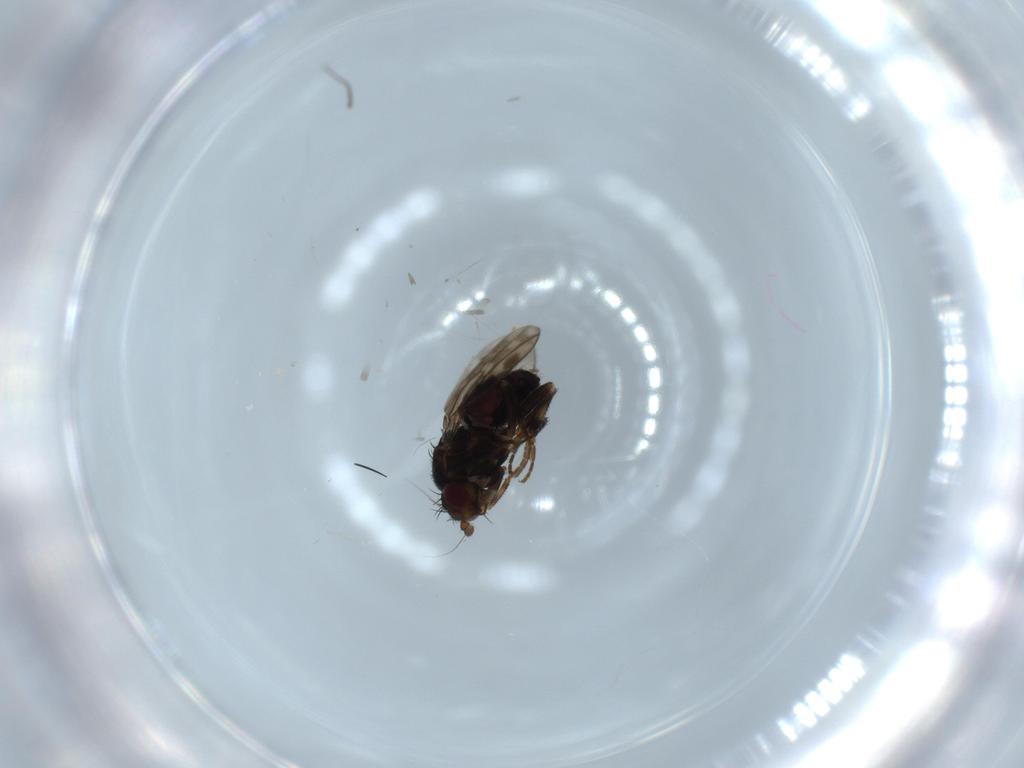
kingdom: Animalia
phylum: Arthropoda
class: Insecta
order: Diptera
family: Sphaeroceridae
